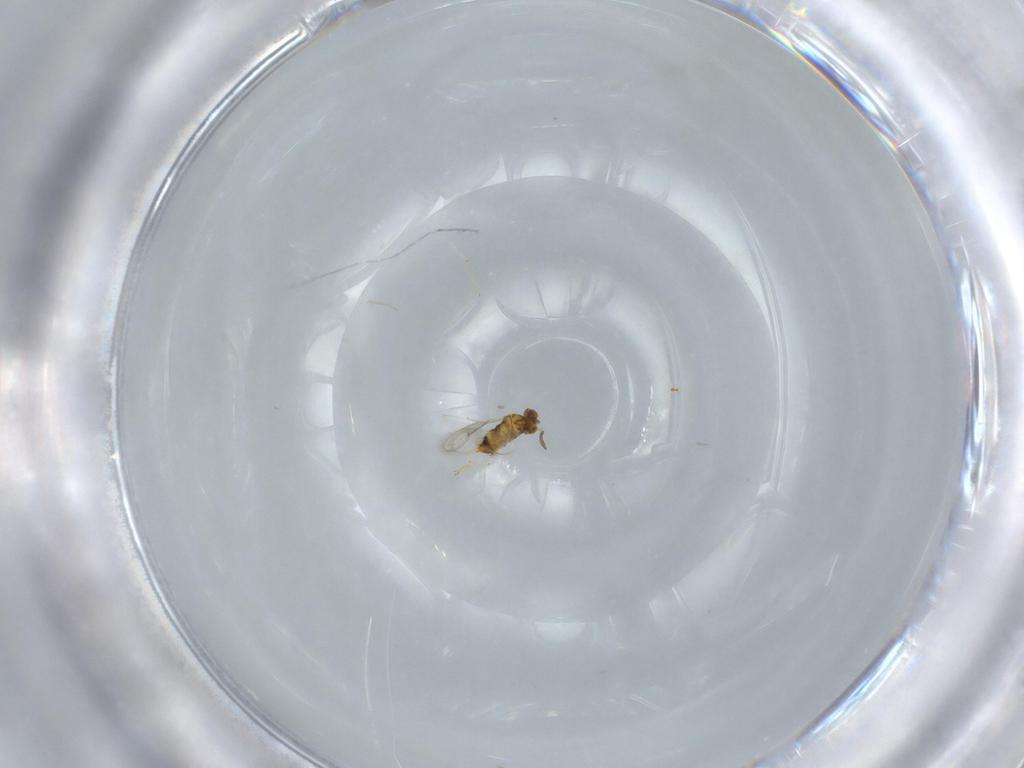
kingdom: Animalia
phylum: Arthropoda
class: Insecta
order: Hymenoptera
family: Aphelinidae
